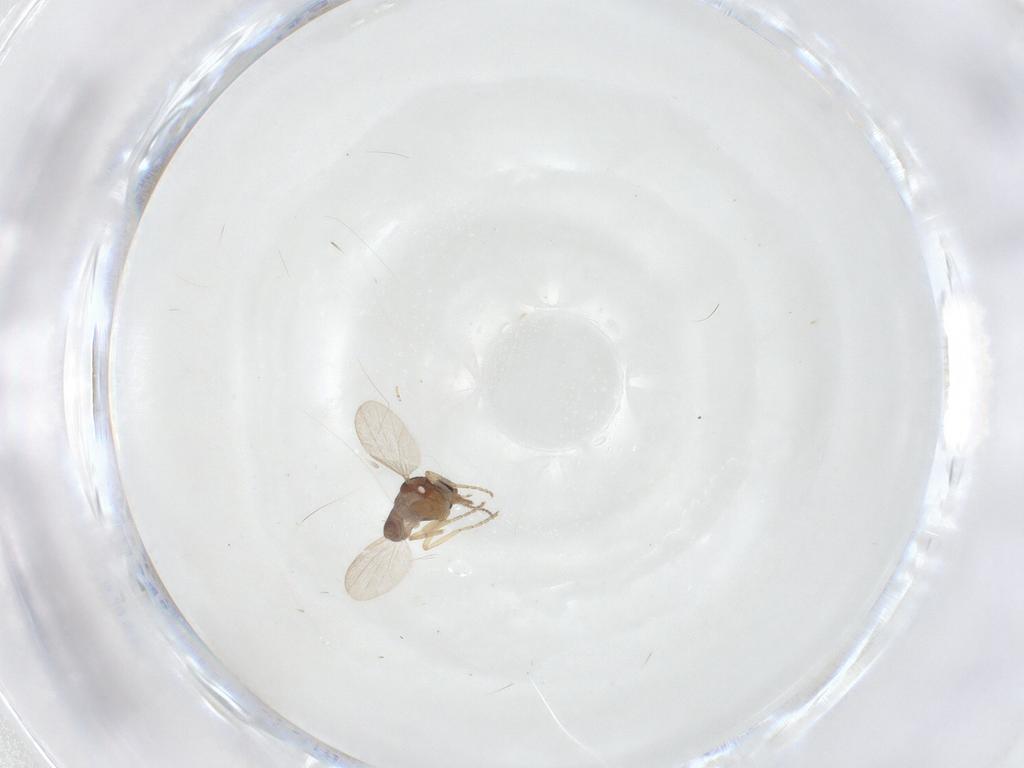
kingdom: Animalia
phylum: Arthropoda
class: Insecta
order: Diptera
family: Ceratopogonidae
